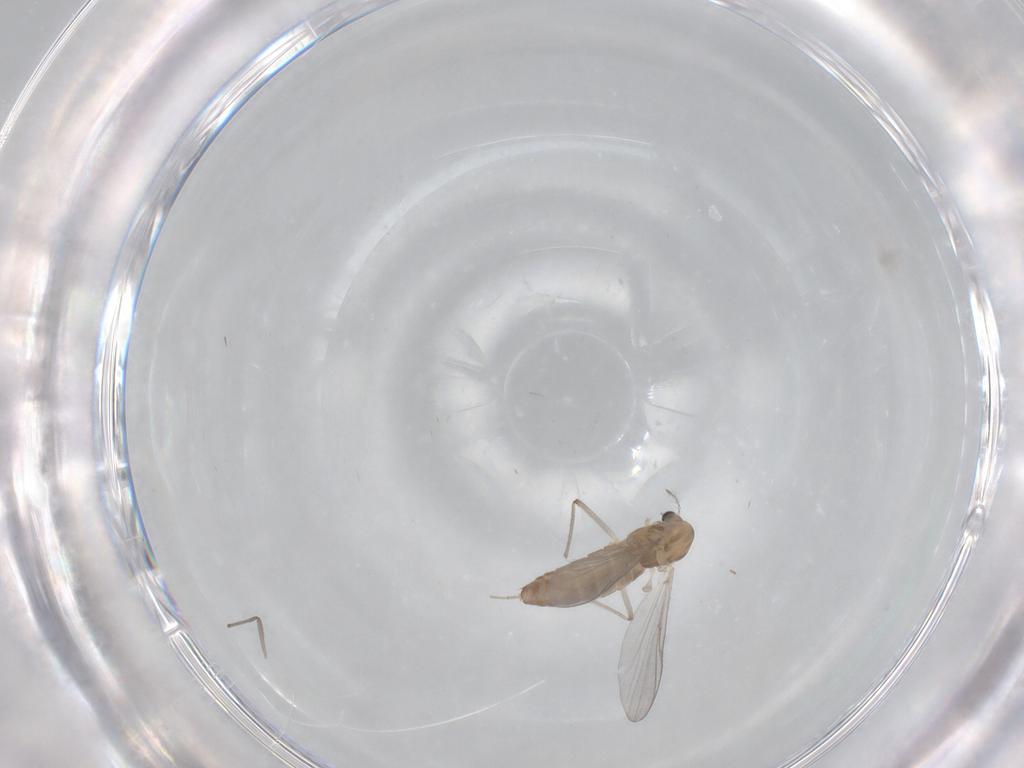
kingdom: Animalia
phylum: Arthropoda
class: Insecta
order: Diptera
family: Chironomidae
